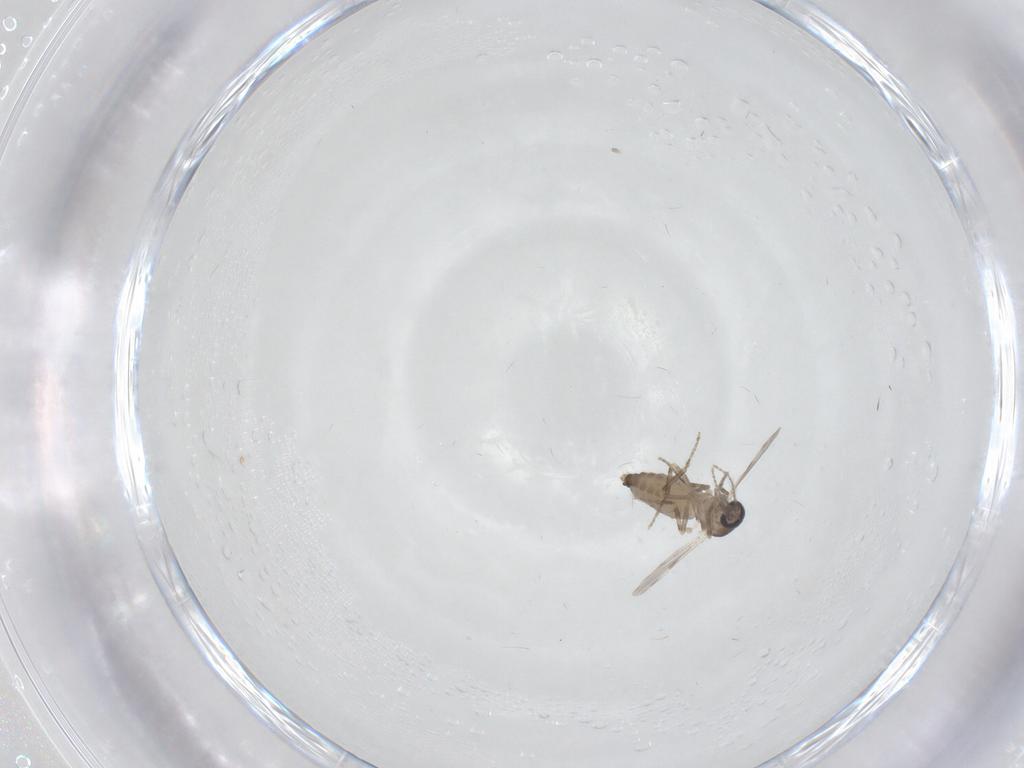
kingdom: Animalia
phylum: Arthropoda
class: Insecta
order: Diptera
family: Ceratopogonidae
